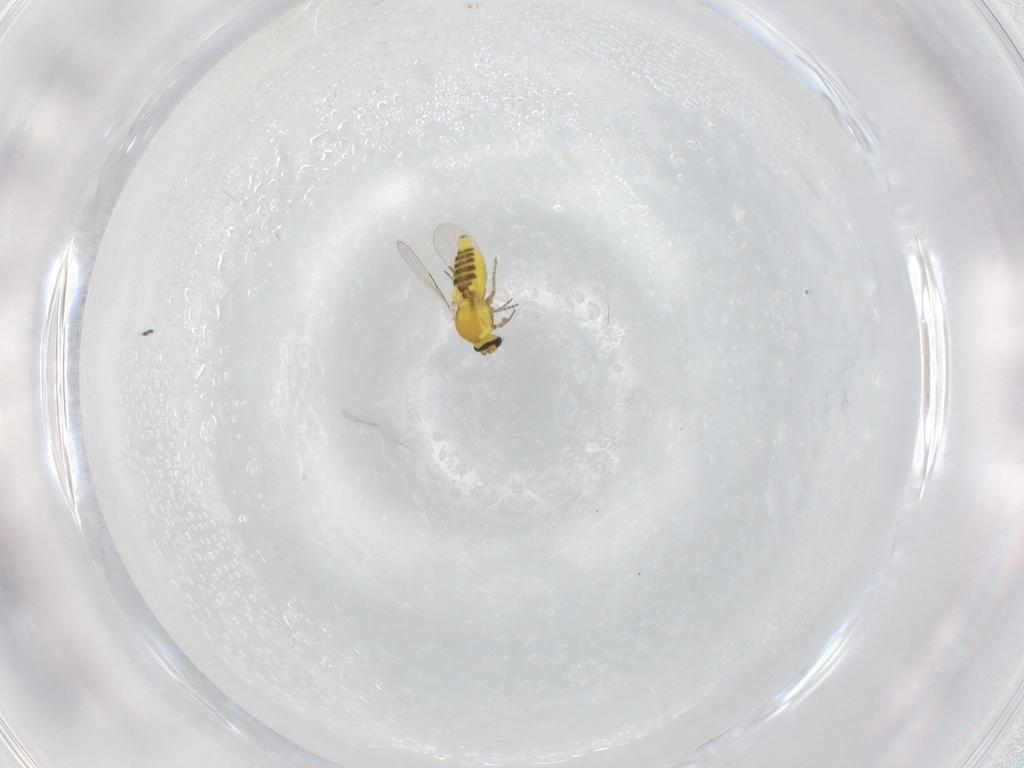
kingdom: Animalia
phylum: Arthropoda
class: Insecta
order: Diptera
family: Ceratopogonidae
